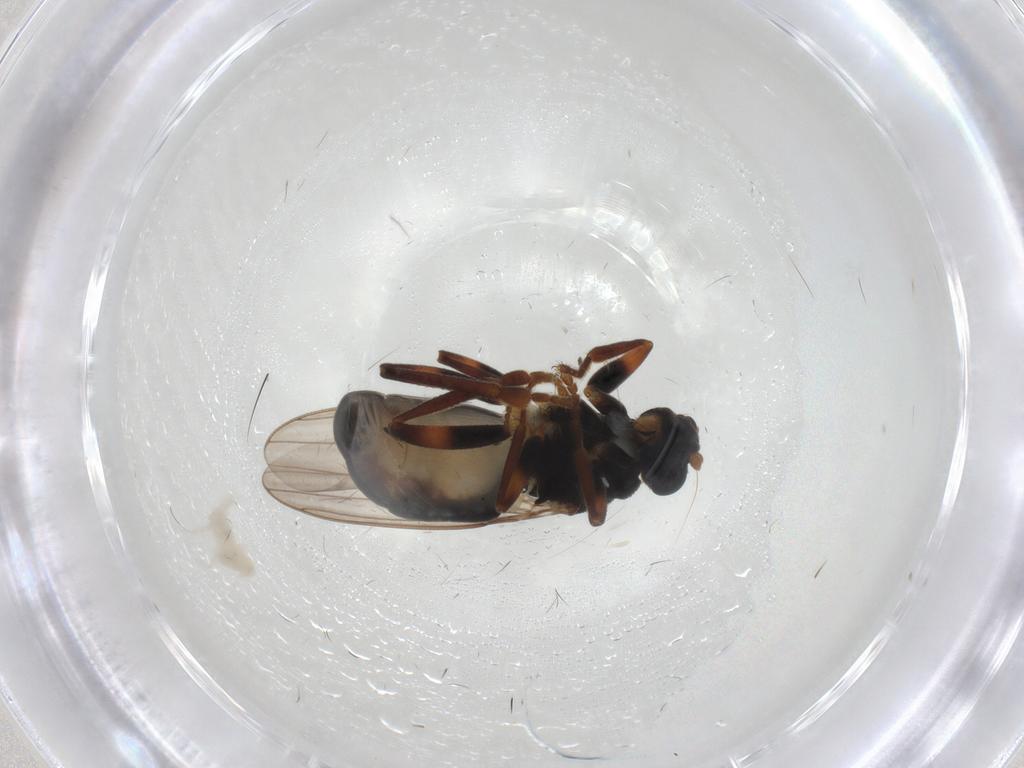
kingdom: Animalia
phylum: Arthropoda
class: Insecta
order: Diptera
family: Sphaeroceridae
